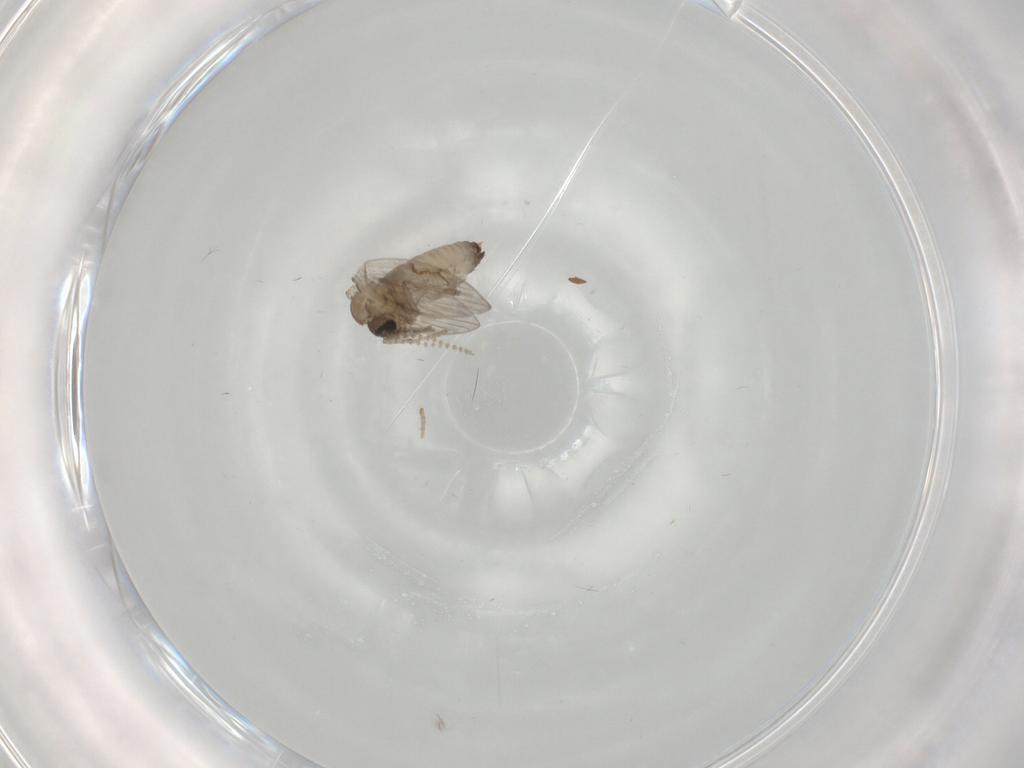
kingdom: Animalia
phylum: Arthropoda
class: Insecta
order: Diptera
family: Psychodidae
